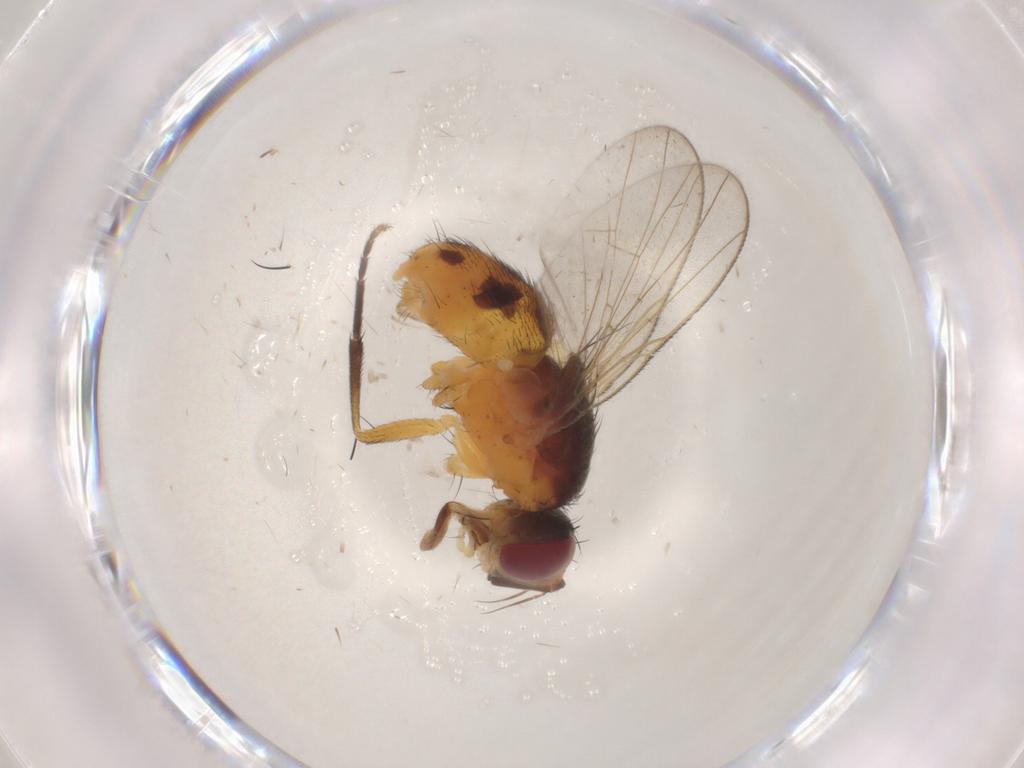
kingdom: Animalia
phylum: Arthropoda
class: Insecta
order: Diptera
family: Muscidae
